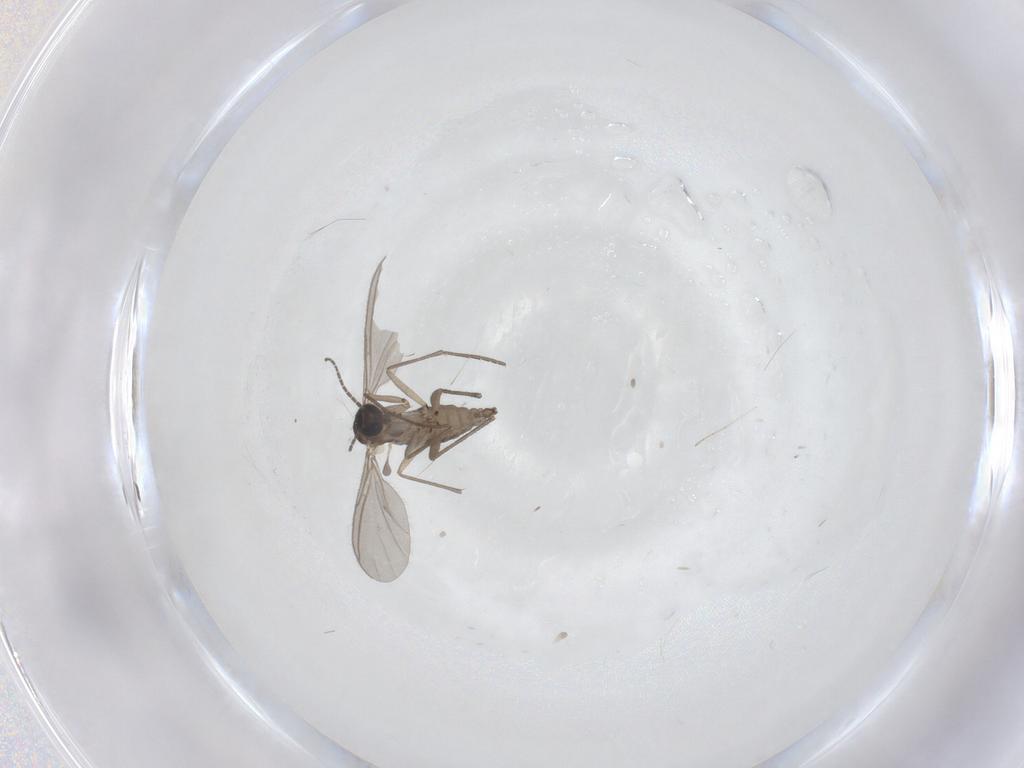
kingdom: Animalia
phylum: Arthropoda
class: Insecta
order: Diptera
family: Sciaridae
